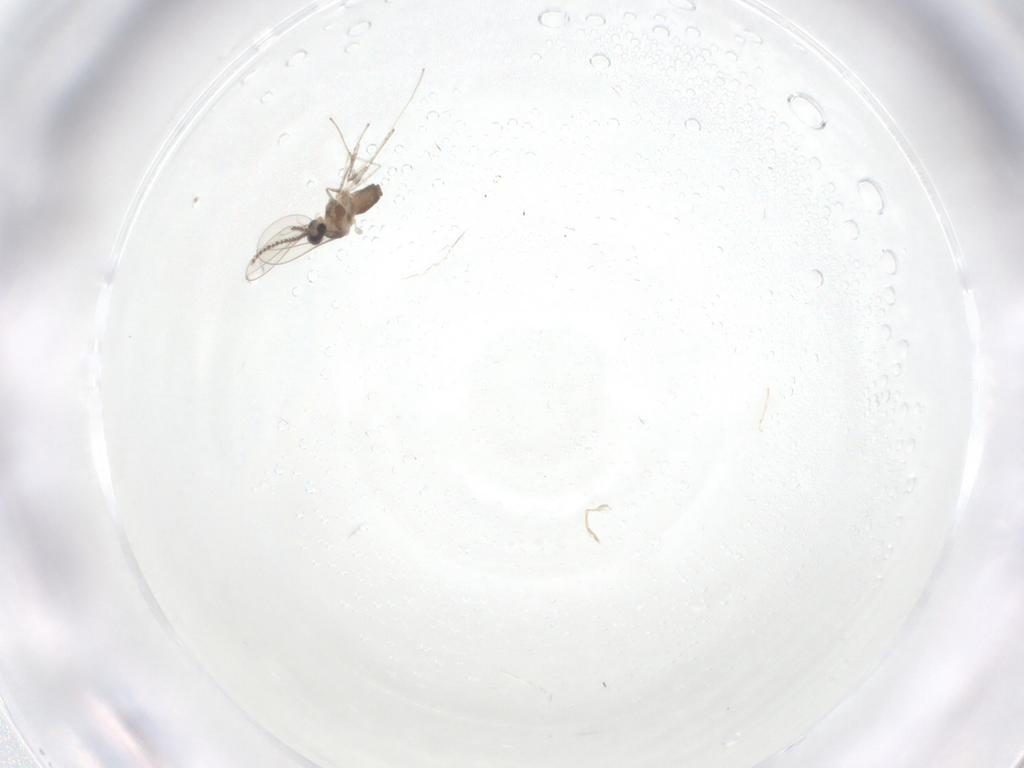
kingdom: Animalia
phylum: Arthropoda
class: Insecta
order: Diptera
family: Cecidomyiidae
